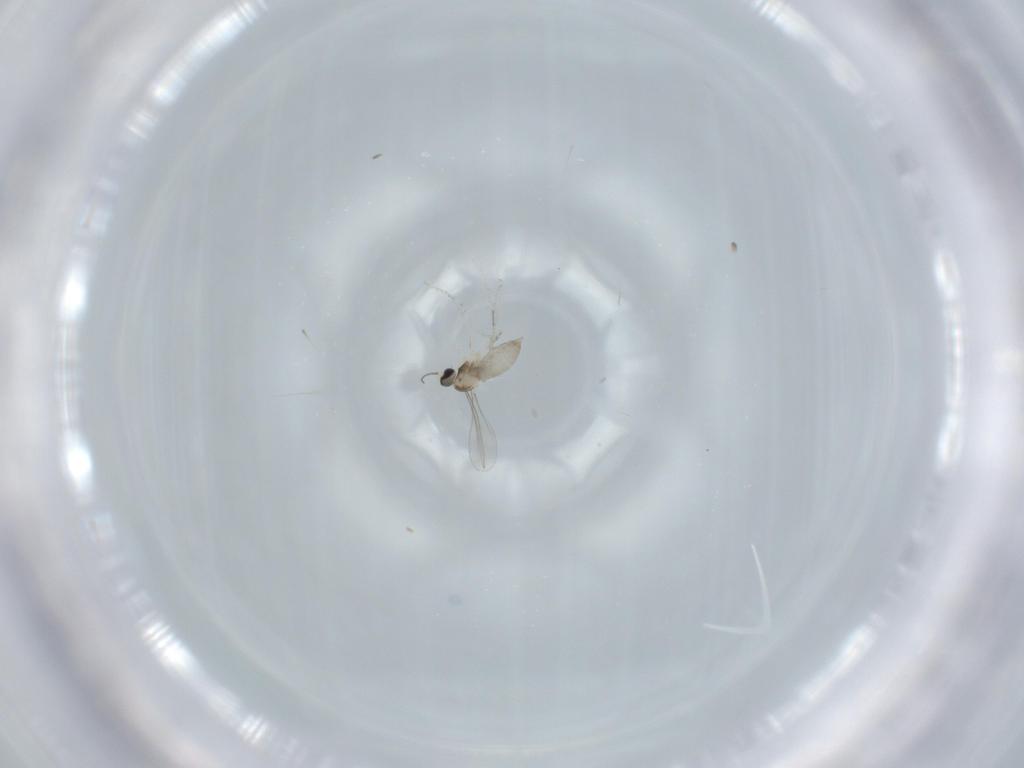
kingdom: Animalia
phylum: Arthropoda
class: Insecta
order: Diptera
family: Cecidomyiidae
